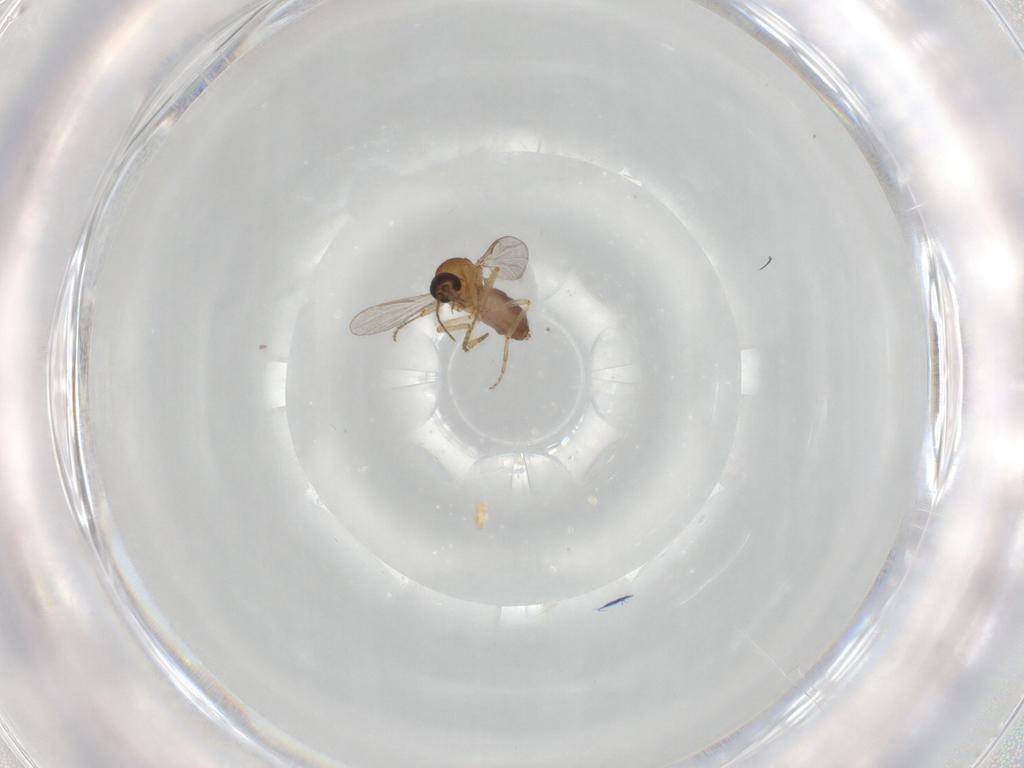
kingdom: Animalia
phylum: Arthropoda
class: Insecta
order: Diptera
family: Ceratopogonidae
